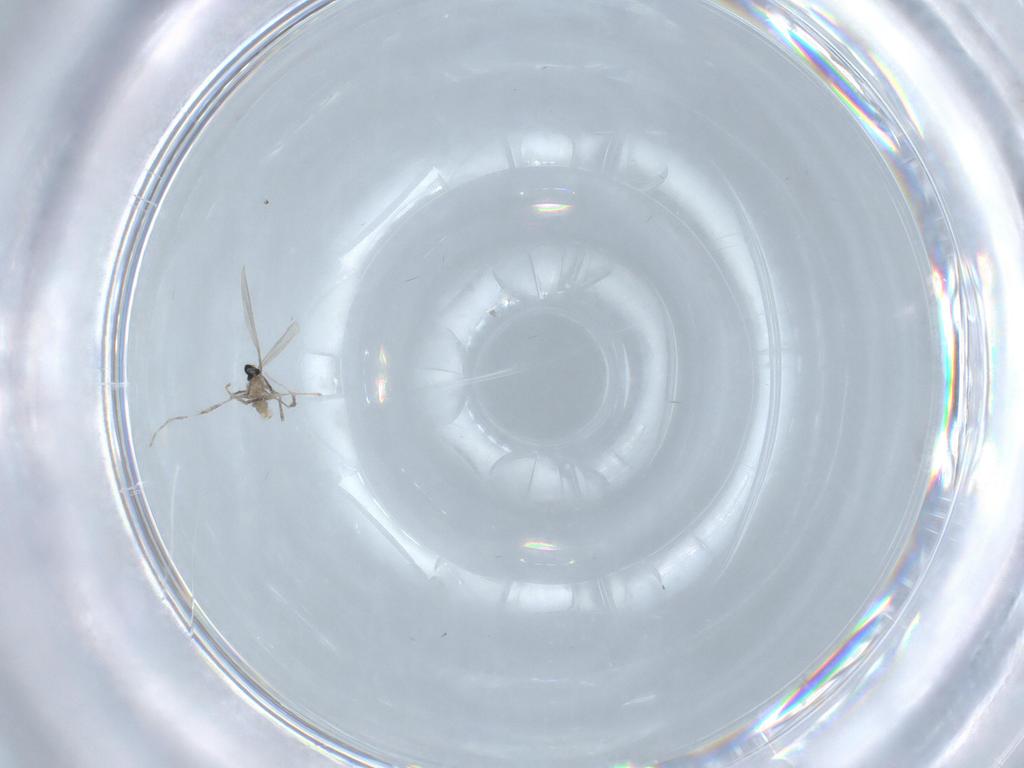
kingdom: Animalia
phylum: Arthropoda
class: Insecta
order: Diptera
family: Cecidomyiidae
